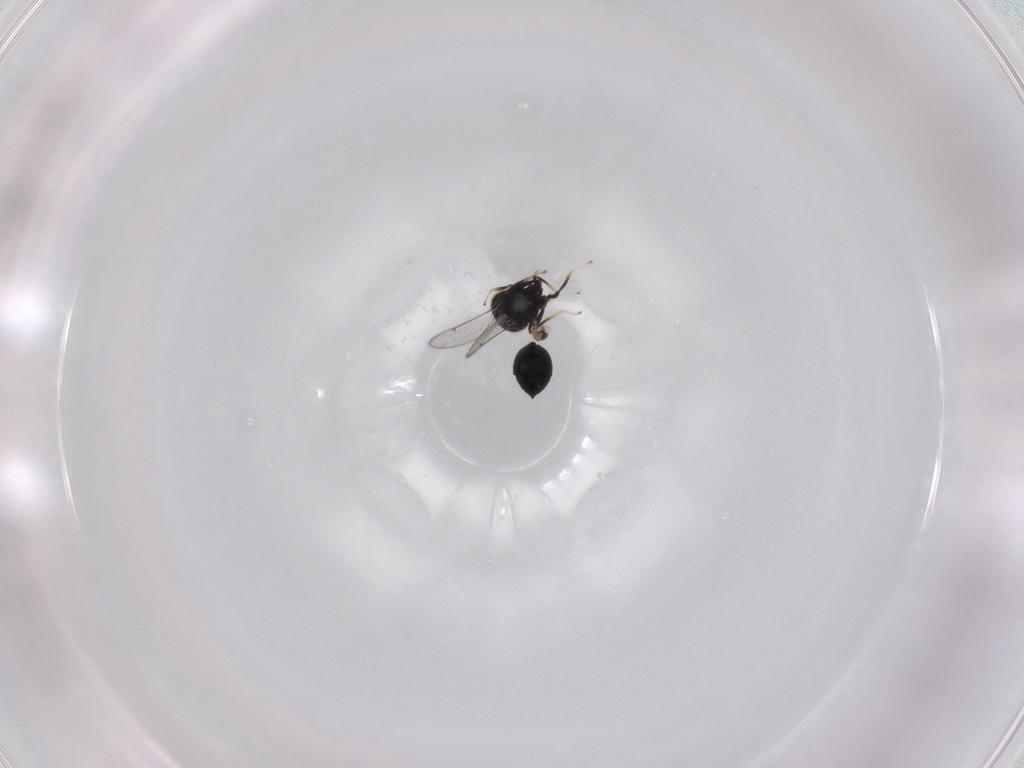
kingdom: Animalia
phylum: Arthropoda
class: Insecta
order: Hymenoptera
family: Eulophidae
